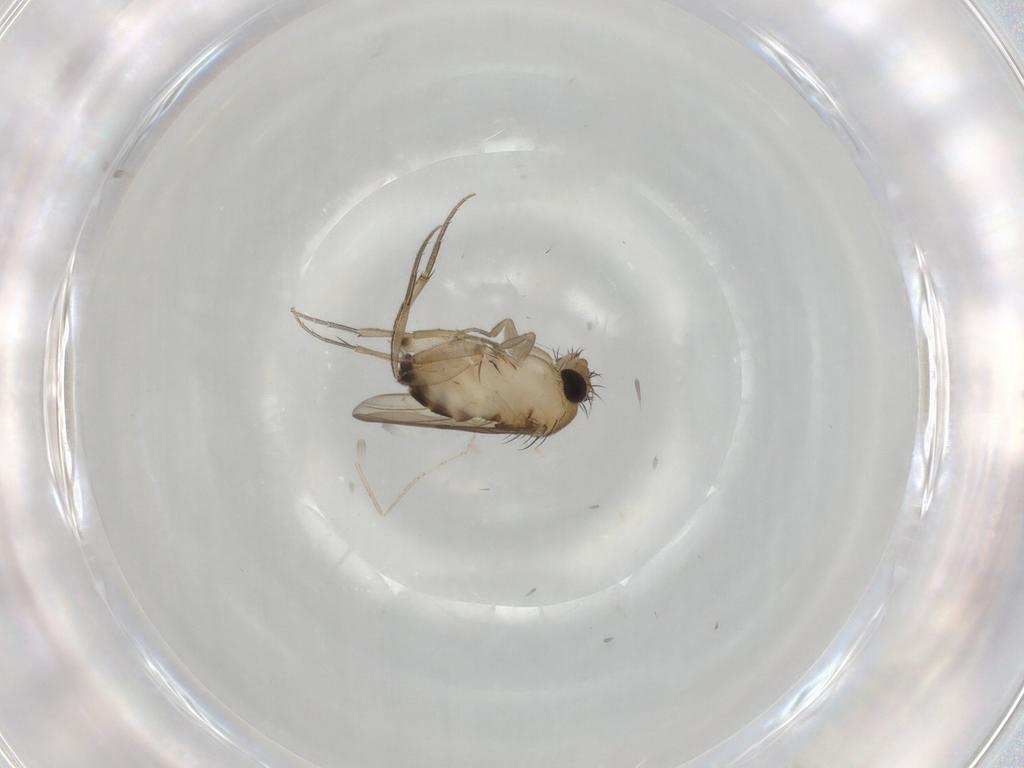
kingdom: Animalia
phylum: Arthropoda
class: Insecta
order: Diptera
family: Phoridae
